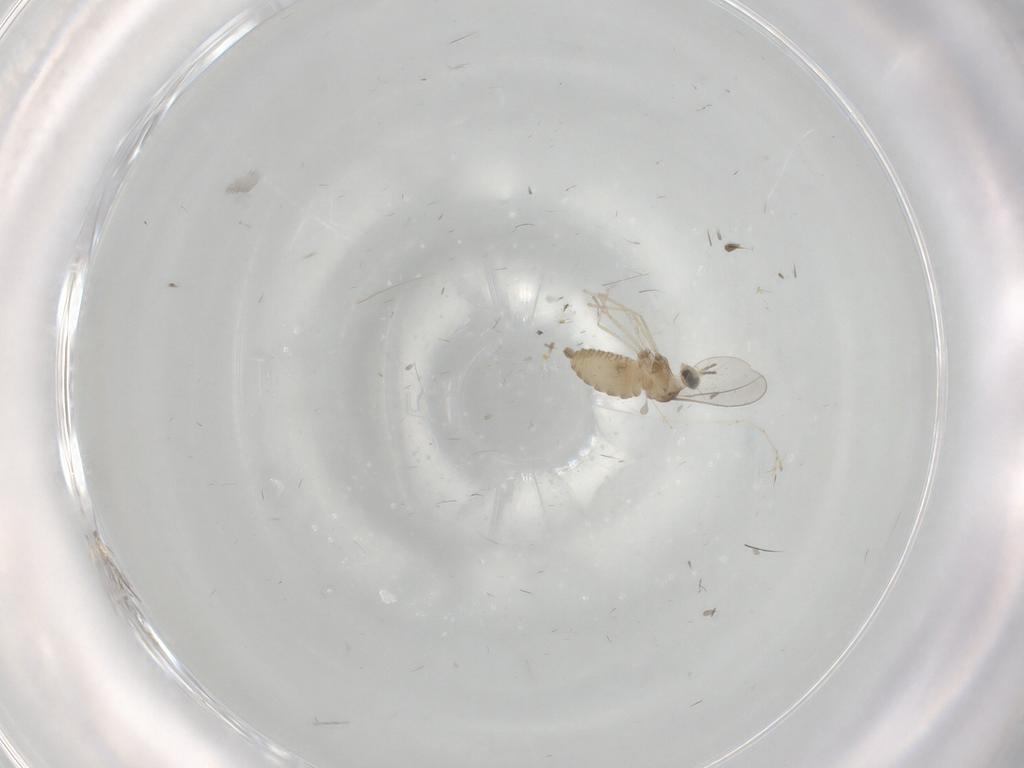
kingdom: Animalia
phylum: Arthropoda
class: Insecta
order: Diptera
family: Cecidomyiidae
